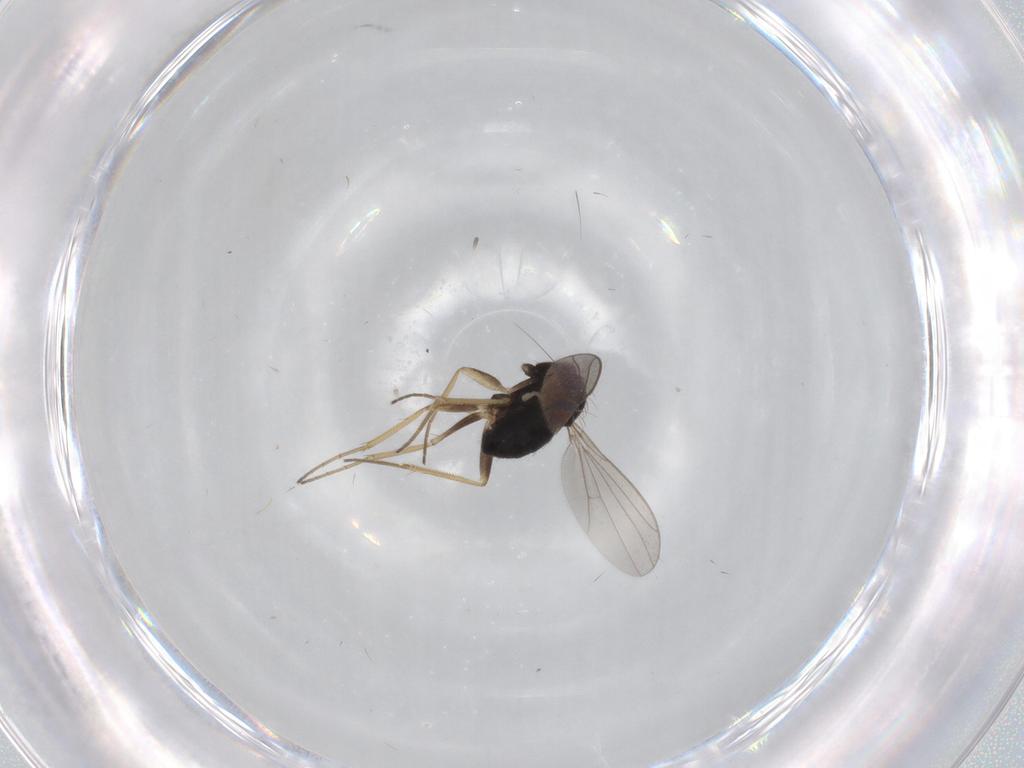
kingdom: Animalia
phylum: Arthropoda
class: Insecta
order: Diptera
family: Dolichopodidae
